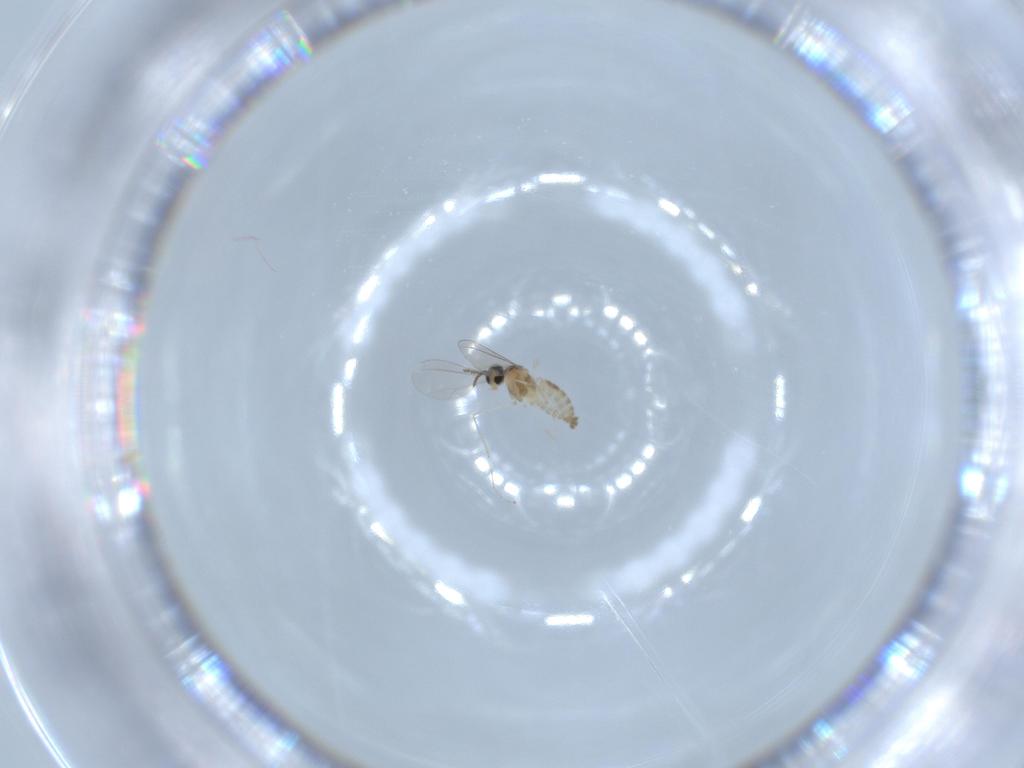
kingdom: Animalia
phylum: Arthropoda
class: Insecta
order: Diptera
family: Cecidomyiidae
